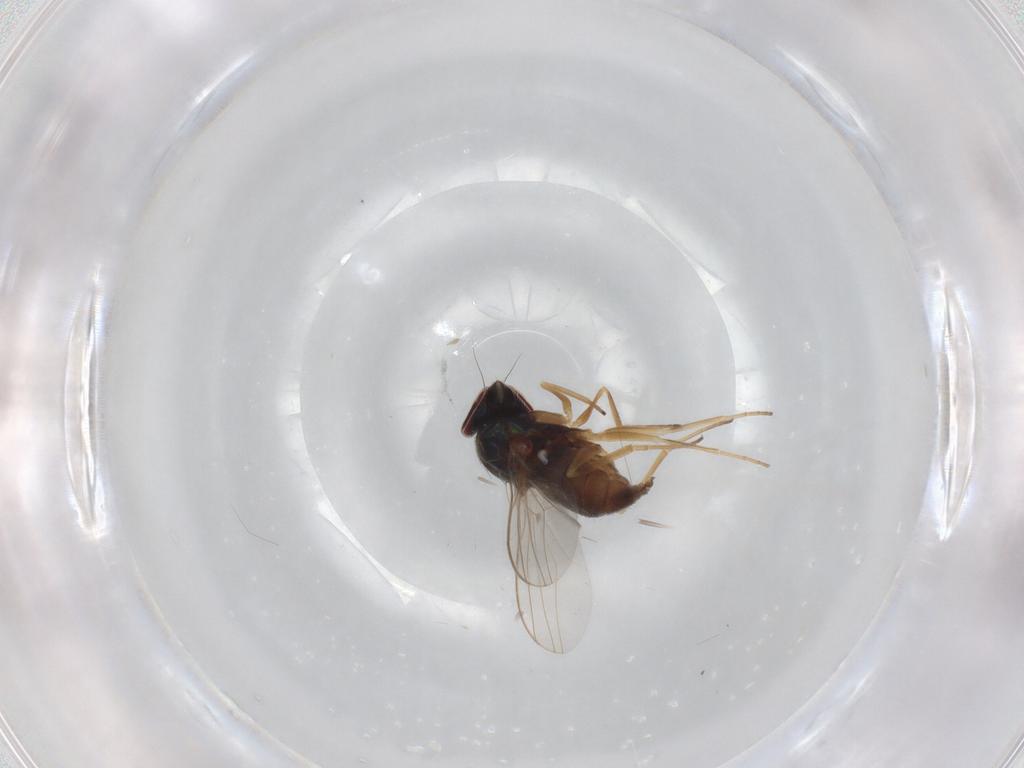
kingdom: Animalia
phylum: Arthropoda
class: Insecta
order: Diptera
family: Dolichopodidae
